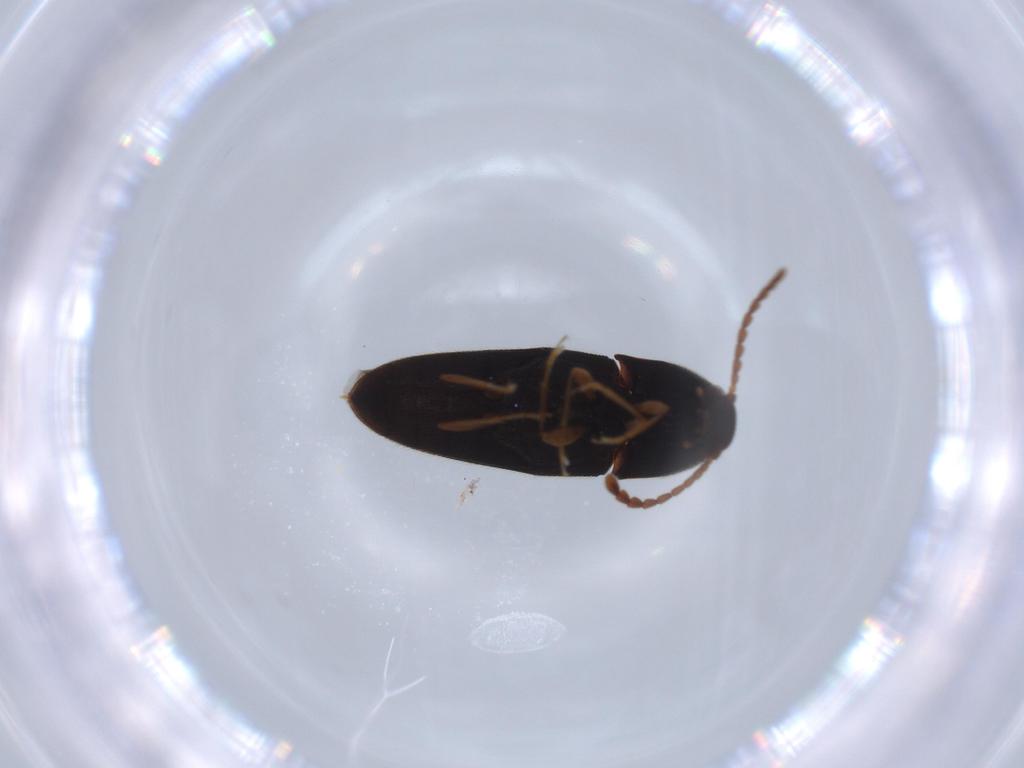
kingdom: Animalia
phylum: Arthropoda
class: Insecta
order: Coleoptera
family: Elateridae
